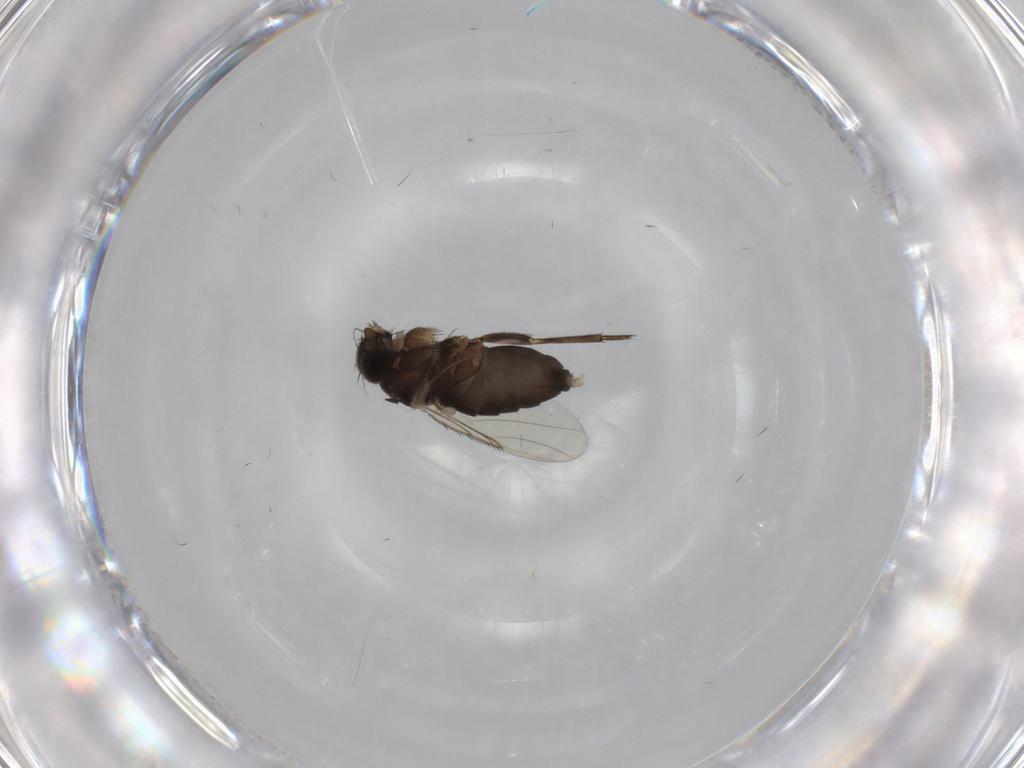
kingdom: Animalia
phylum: Arthropoda
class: Insecta
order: Diptera
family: Phoridae
